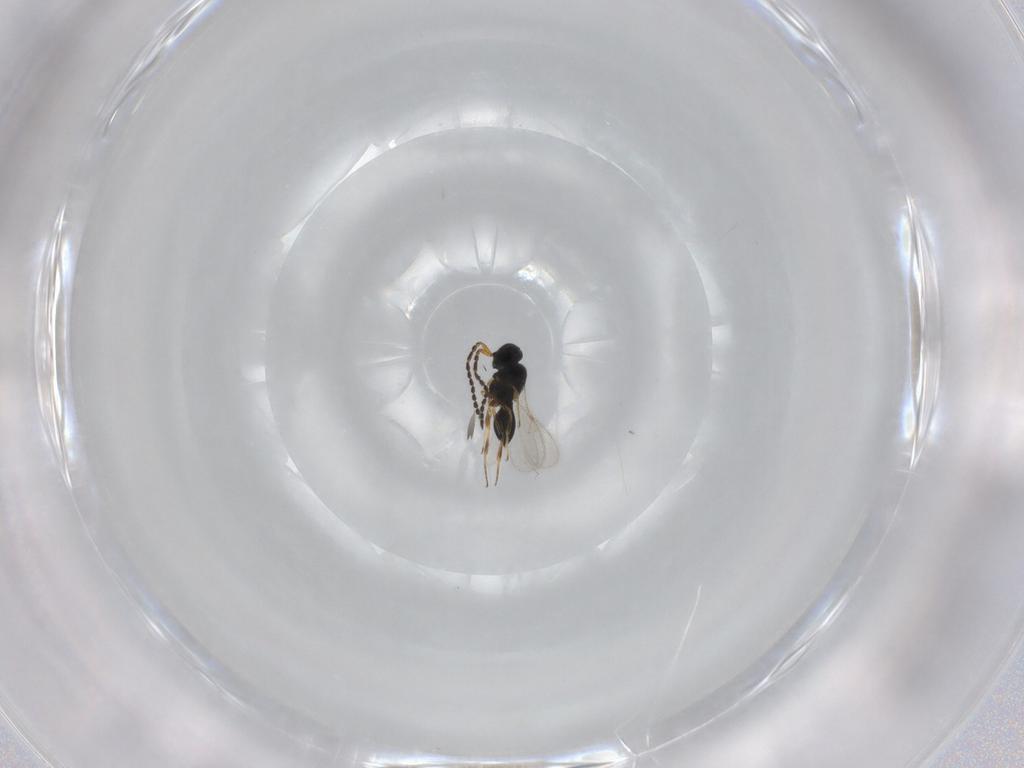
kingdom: Animalia
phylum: Arthropoda
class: Insecta
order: Hymenoptera
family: Scelionidae
